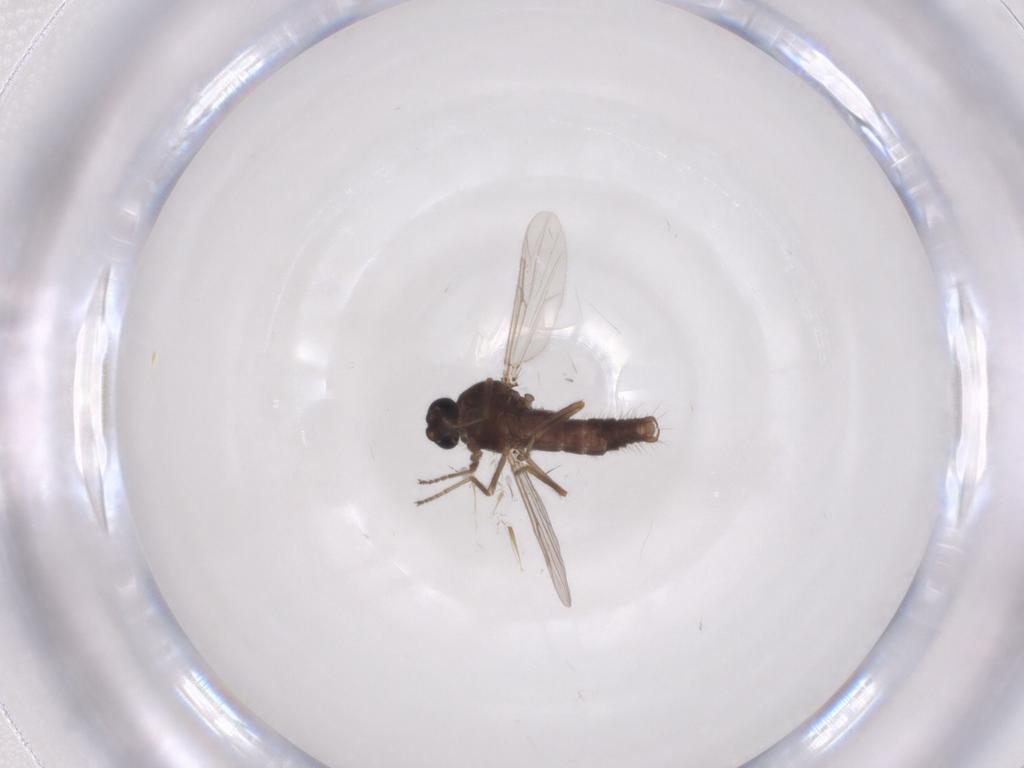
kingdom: Animalia
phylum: Arthropoda
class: Insecta
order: Diptera
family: Ceratopogonidae
